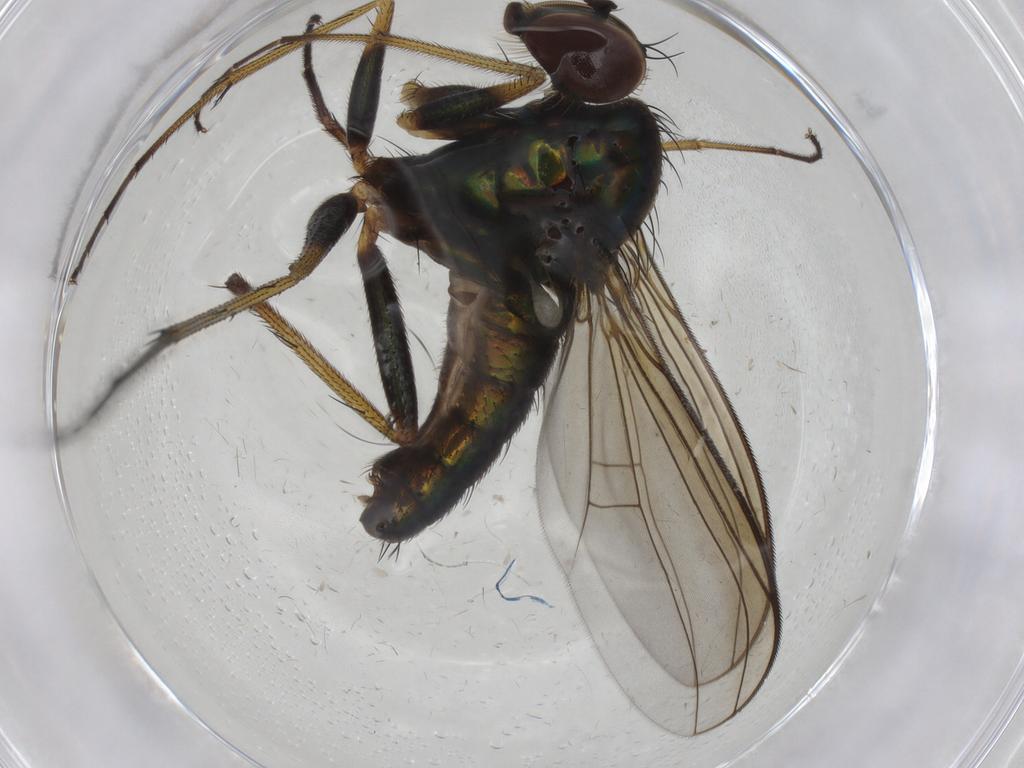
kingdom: Animalia
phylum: Arthropoda
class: Insecta
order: Diptera
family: Dolichopodidae
